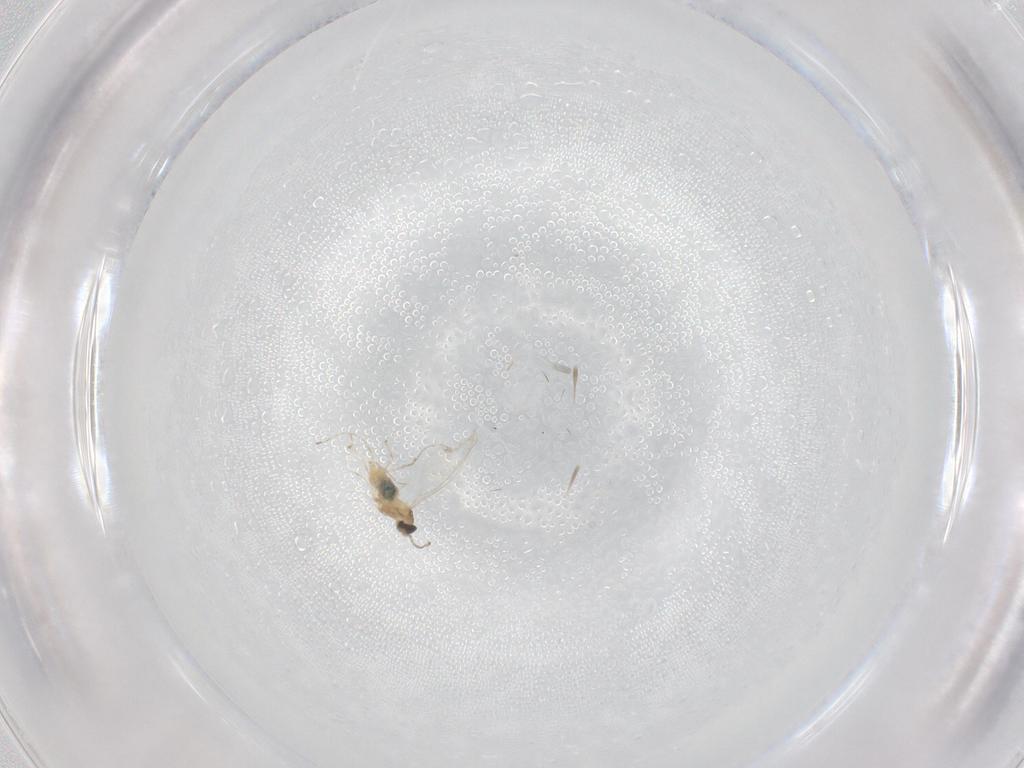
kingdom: Animalia
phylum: Arthropoda
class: Insecta
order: Diptera
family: Cecidomyiidae
